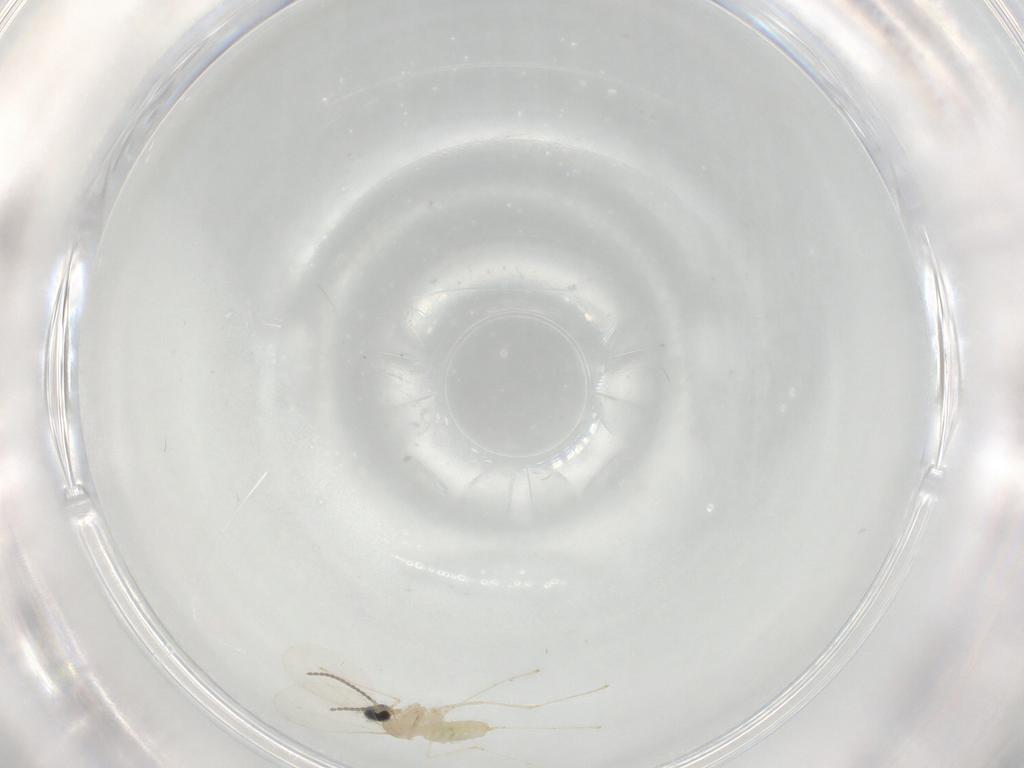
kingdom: Animalia
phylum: Arthropoda
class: Insecta
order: Diptera
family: Cecidomyiidae
